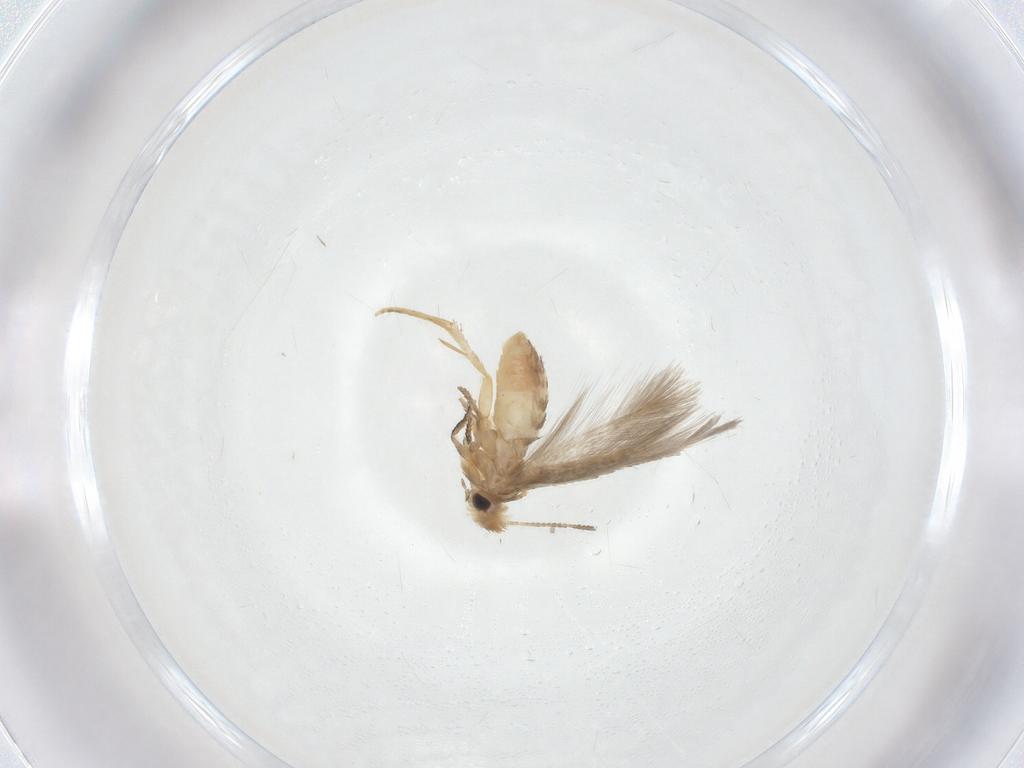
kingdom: Animalia
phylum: Arthropoda
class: Insecta
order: Lepidoptera
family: Nepticulidae
